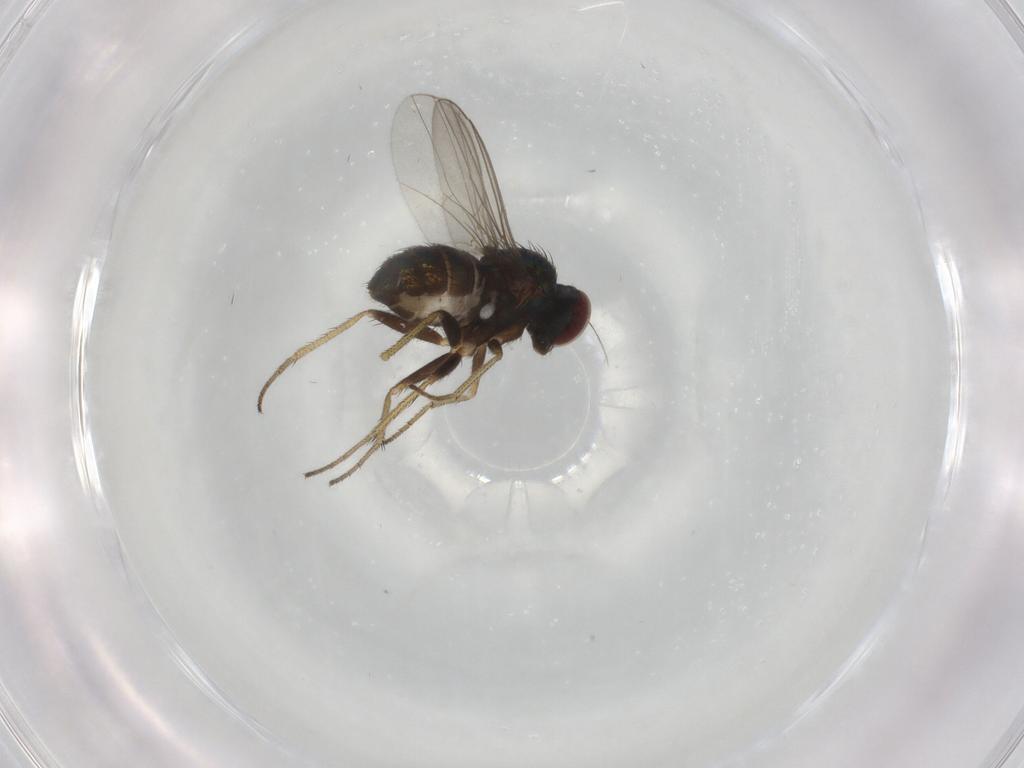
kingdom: Animalia
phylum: Arthropoda
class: Insecta
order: Diptera
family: Dolichopodidae
